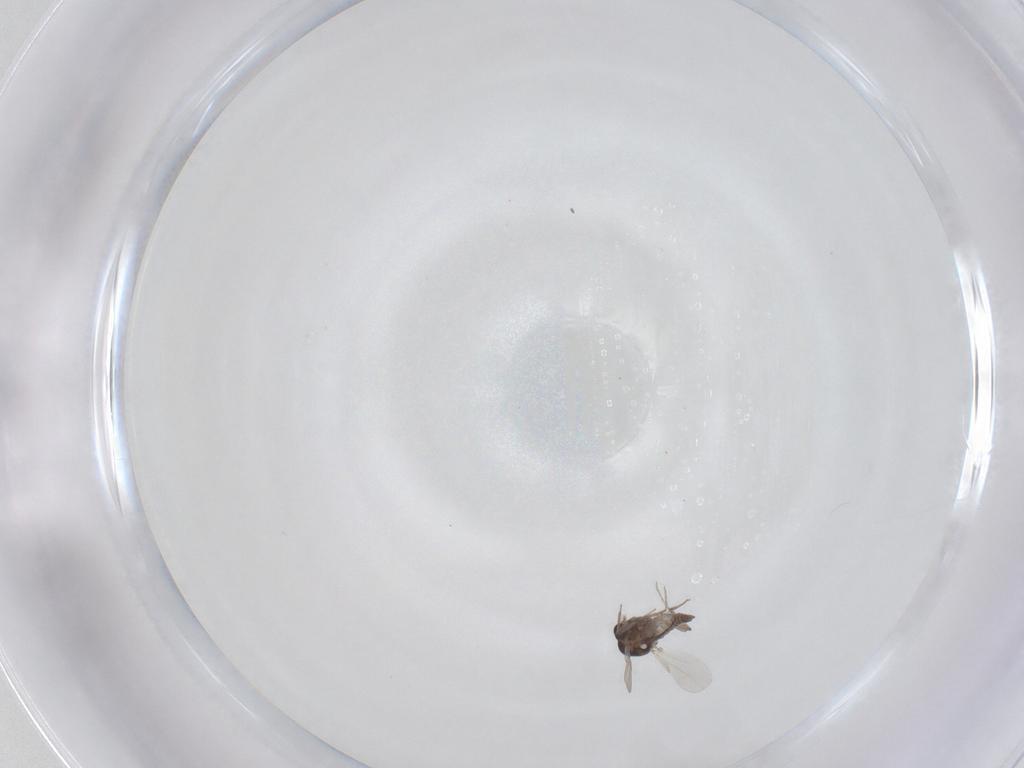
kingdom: Animalia
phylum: Arthropoda
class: Insecta
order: Diptera
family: Ceratopogonidae
